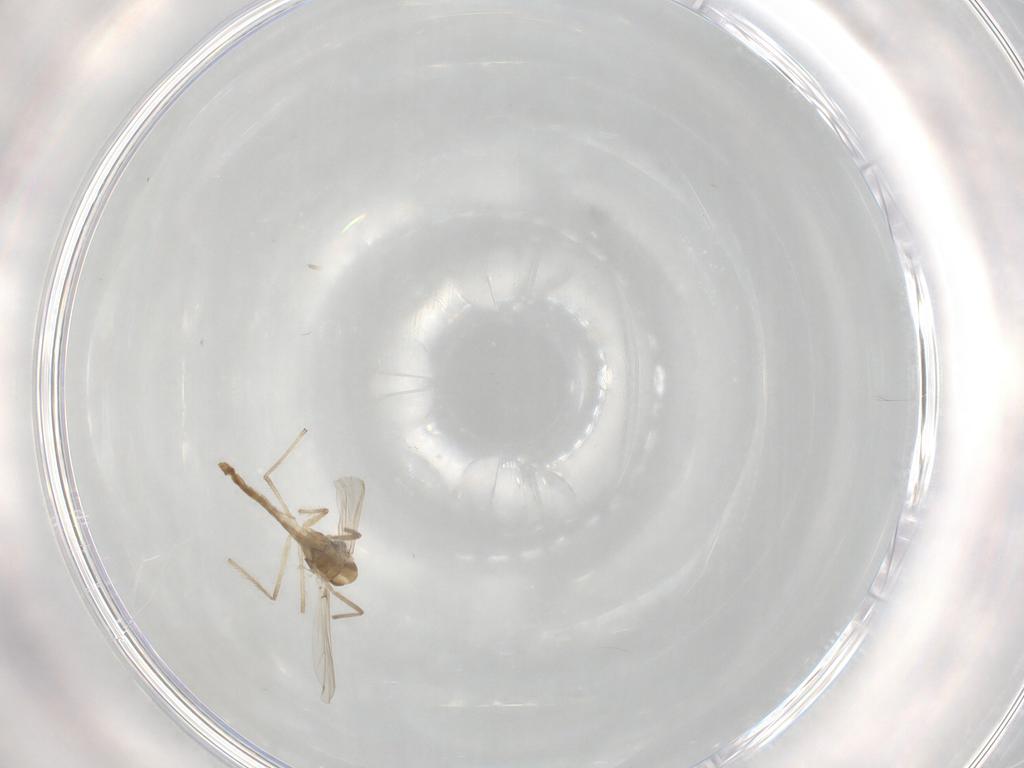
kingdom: Animalia
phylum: Arthropoda
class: Insecta
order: Diptera
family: Chironomidae
